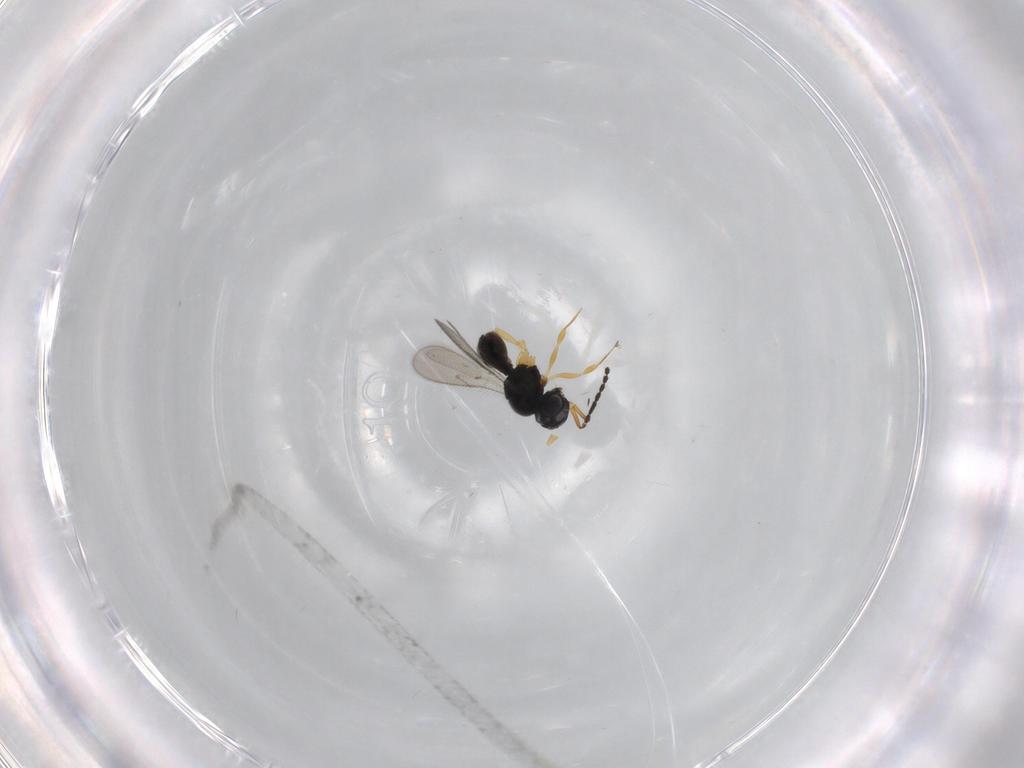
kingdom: Animalia
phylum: Arthropoda
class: Insecta
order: Hymenoptera
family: Scelionidae
